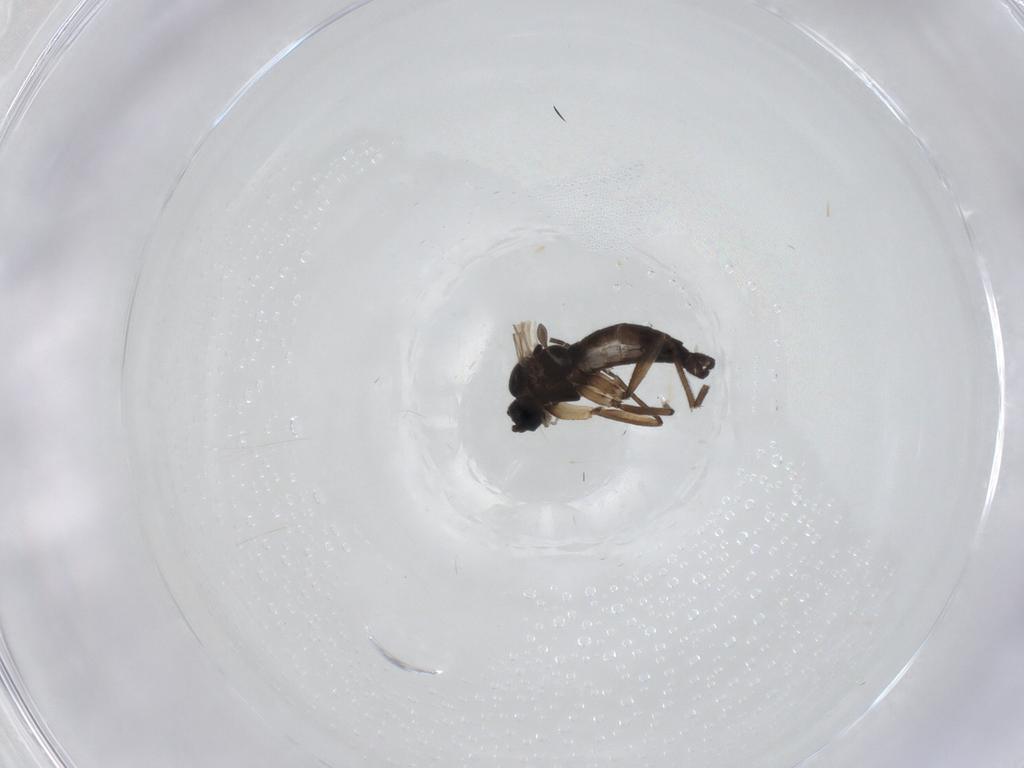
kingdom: Animalia
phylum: Arthropoda
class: Insecta
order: Diptera
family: Sciaridae
